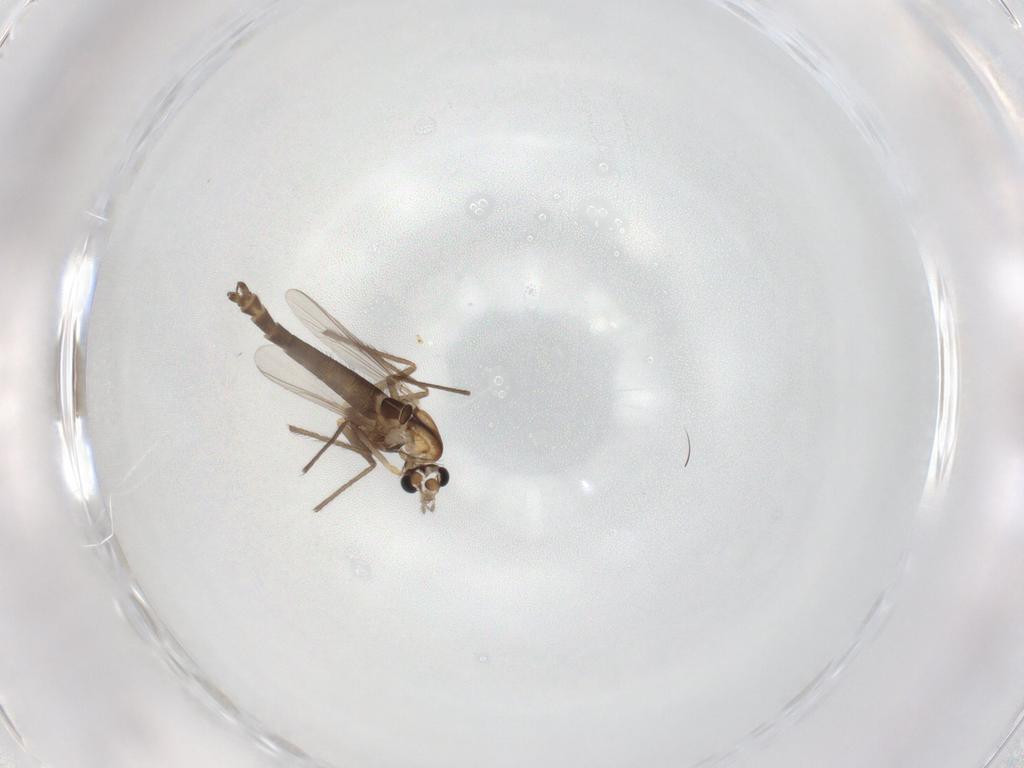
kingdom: Animalia
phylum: Arthropoda
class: Insecta
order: Diptera
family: Chironomidae
